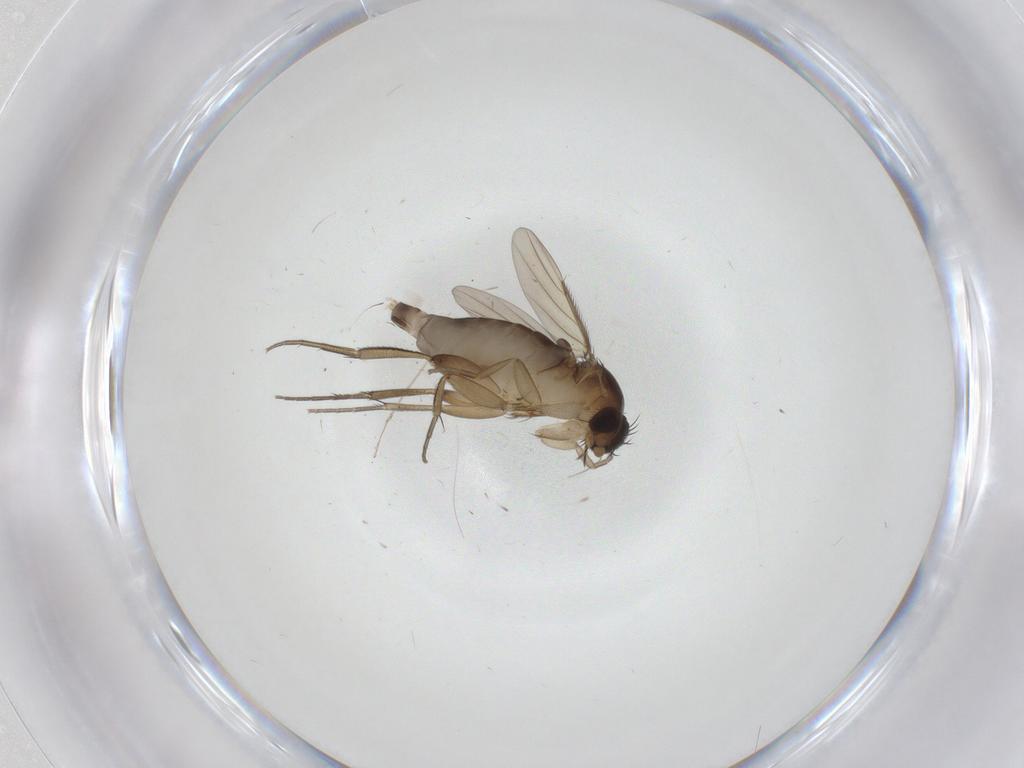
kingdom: Animalia
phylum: Arthropoda
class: Insecta
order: Diptera
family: Phoridae
